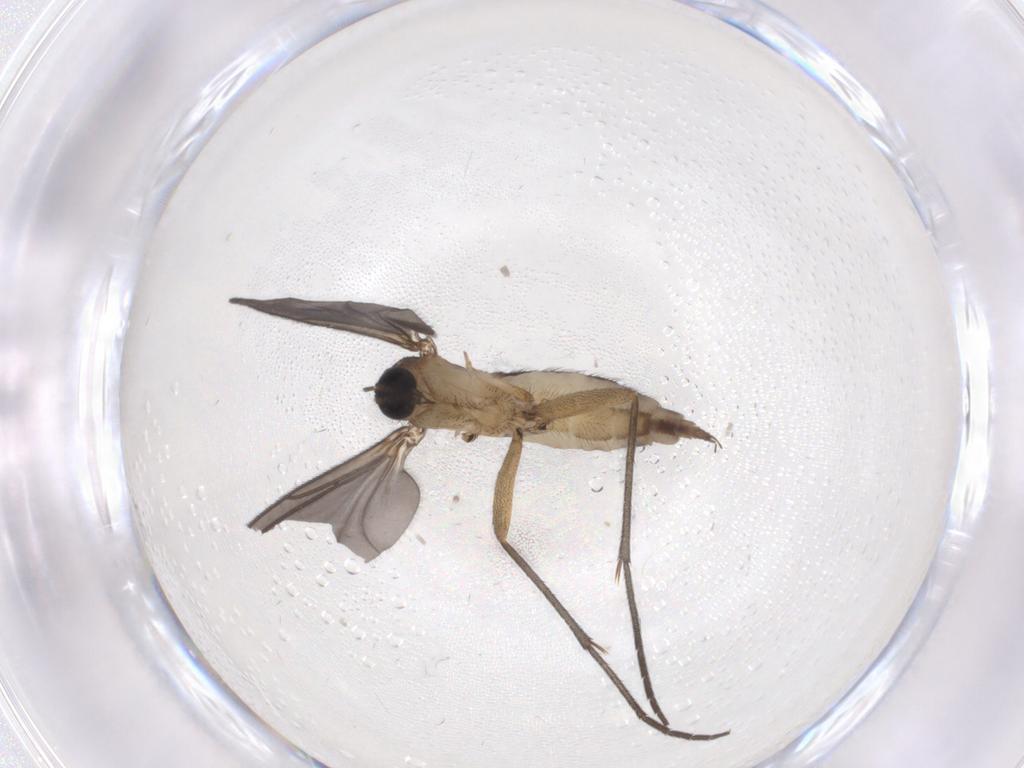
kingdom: Animalia
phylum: Arthropoda
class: Insecta
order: Diptera
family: Sciaridae
